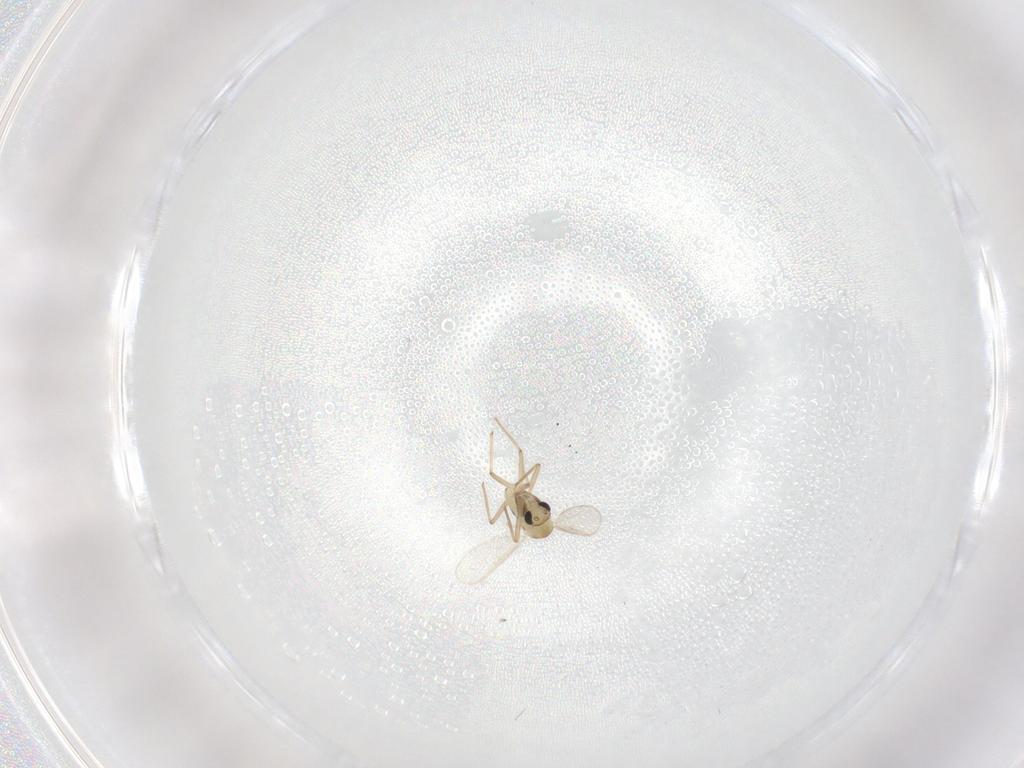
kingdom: Animalia
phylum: Arthropoda
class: Insecta
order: Diptera
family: Chironomidae
